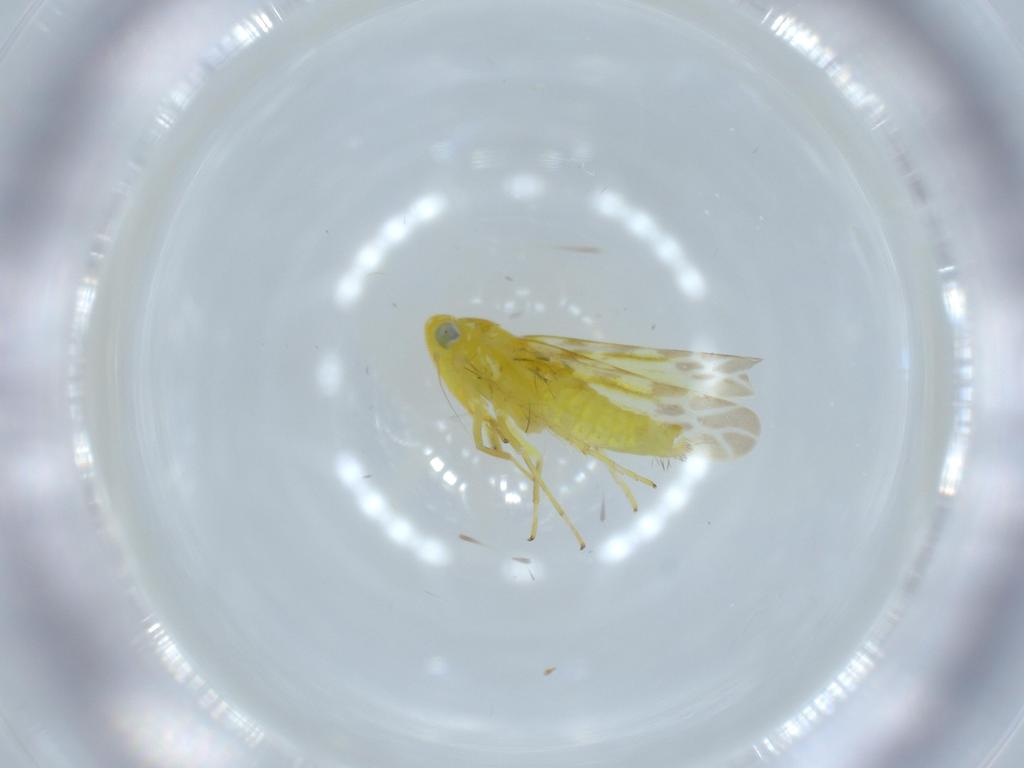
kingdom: Animalia
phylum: Arthropoda
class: Insecta
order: Hemiptera
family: Cicadellidae
